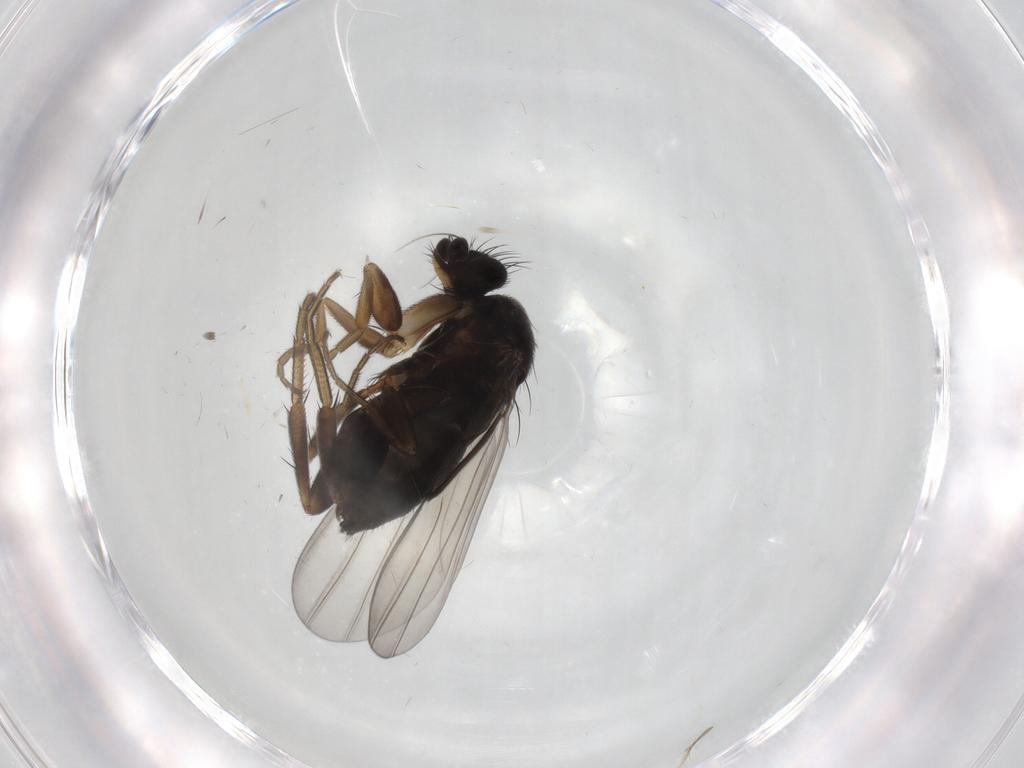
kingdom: Animalia
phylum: Arthropoda
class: Insecta
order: Diptera
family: Phoridae
